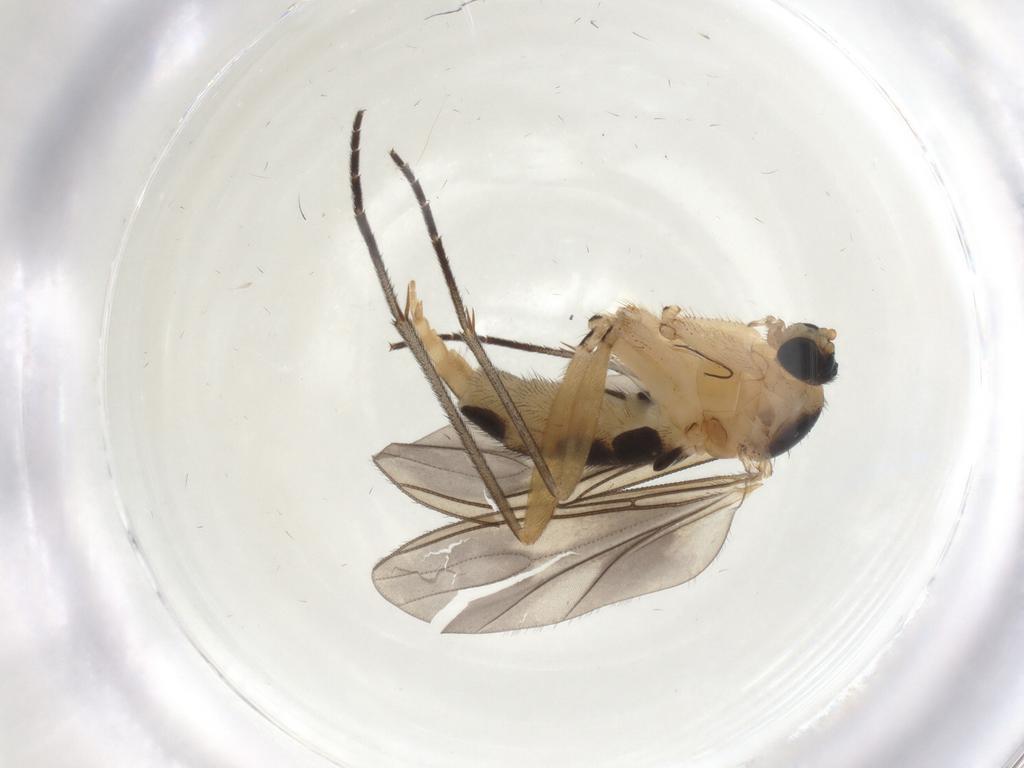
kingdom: Animalia
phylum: Arthropoda
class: Insecta
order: Diptera
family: Sciaridae
